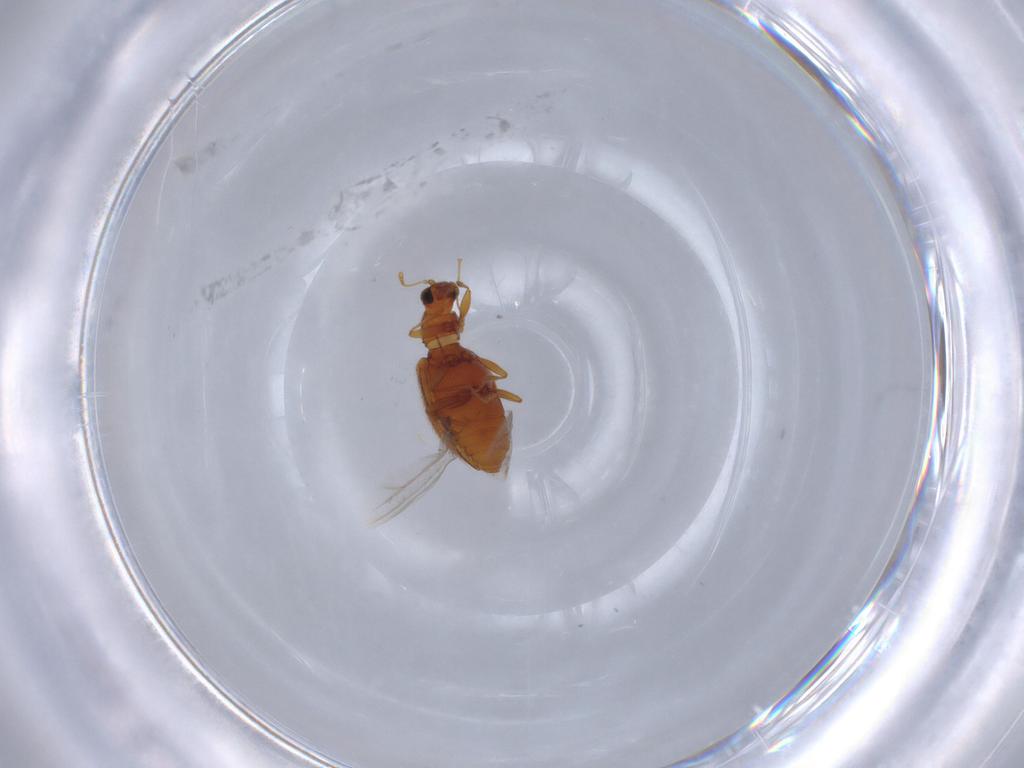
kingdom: Animalia
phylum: Arthropoda
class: Insecta
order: Coleoptera
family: Latridiidae
